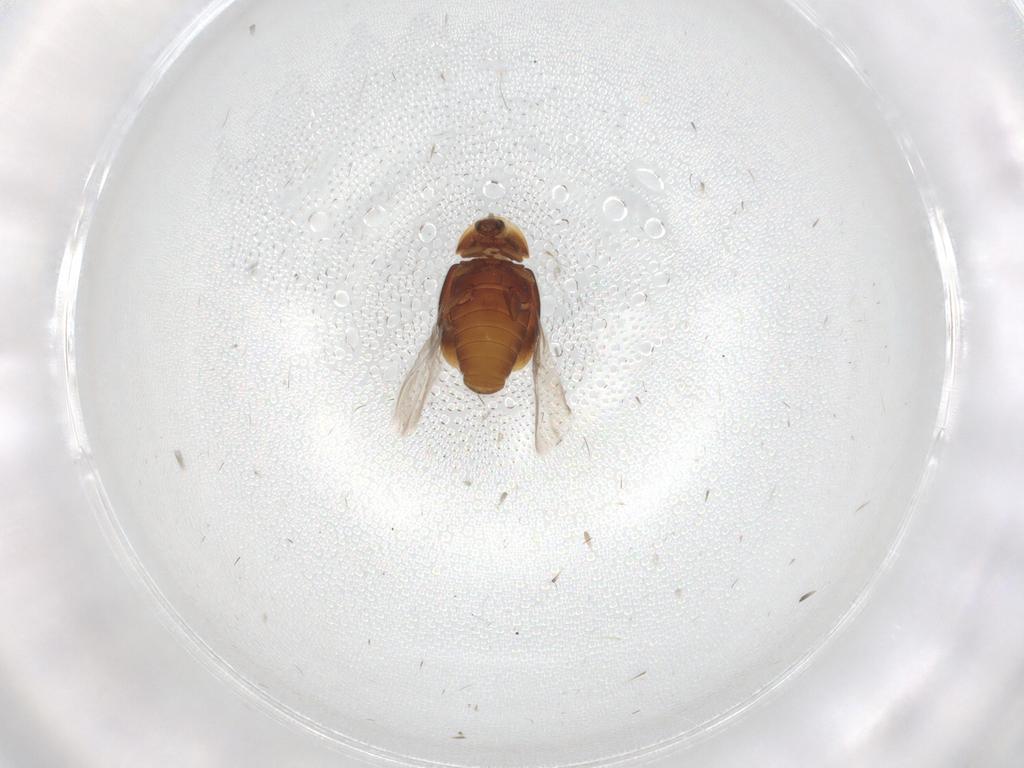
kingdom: Animalia
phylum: Arthropoda
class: Insecta
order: Coleoptera
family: Corylophidae
